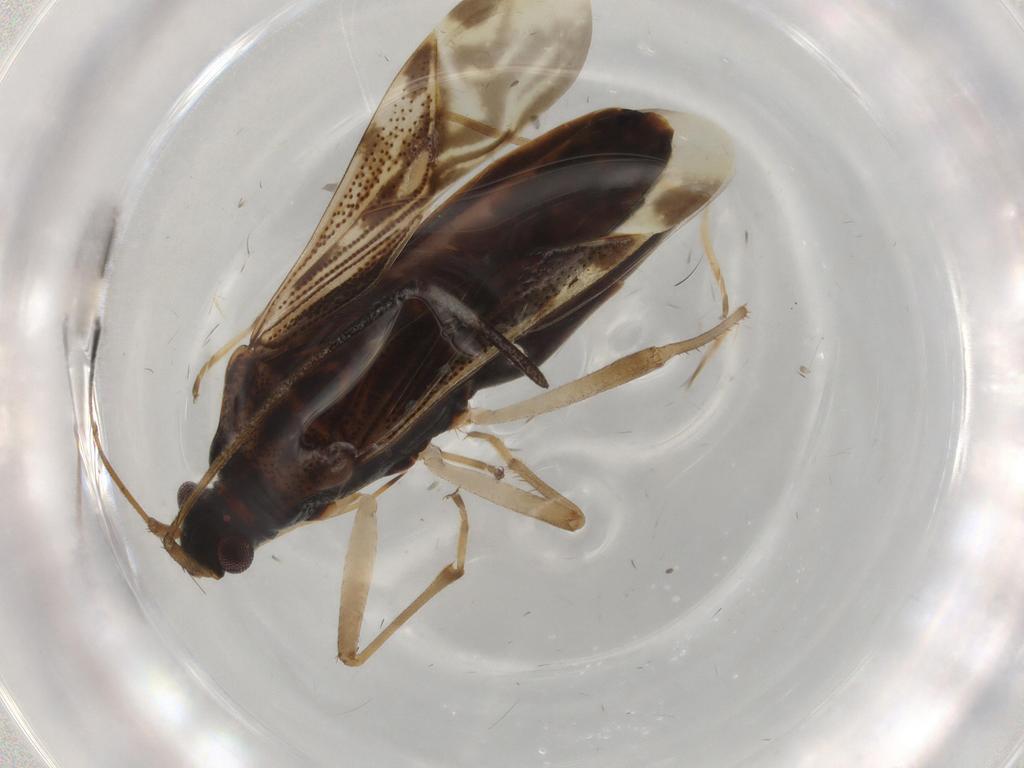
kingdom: Animalia
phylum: Arthropoda
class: Insecta
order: Hemiptera
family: Rhyparochromidae
